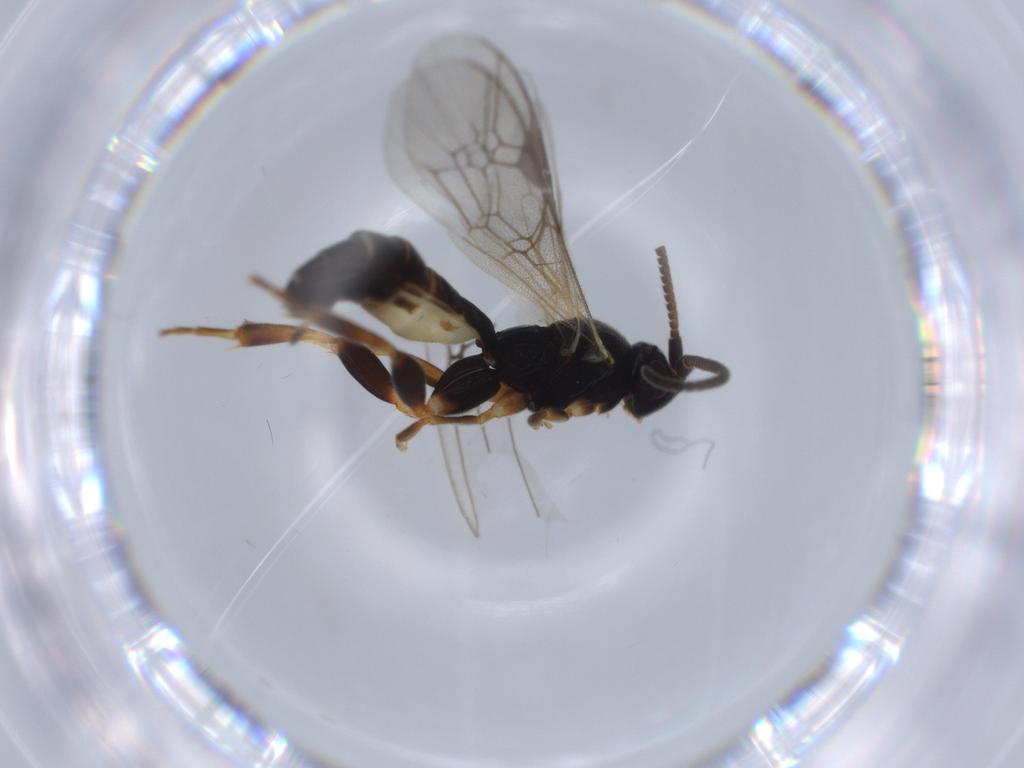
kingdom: Animalia
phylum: Arthropoda
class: Insecta
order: Hymenoptera
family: Ichneumonidae
